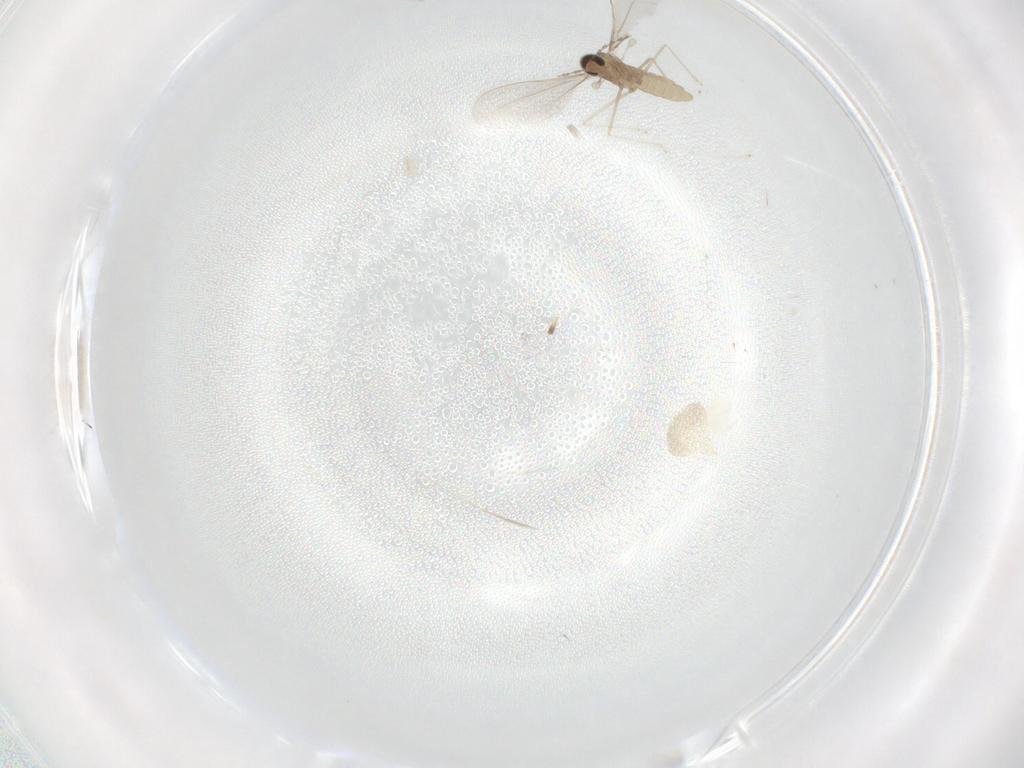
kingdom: Animalia
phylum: Arthropoda
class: Insecta
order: Diptera
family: Cecidomyiidae
